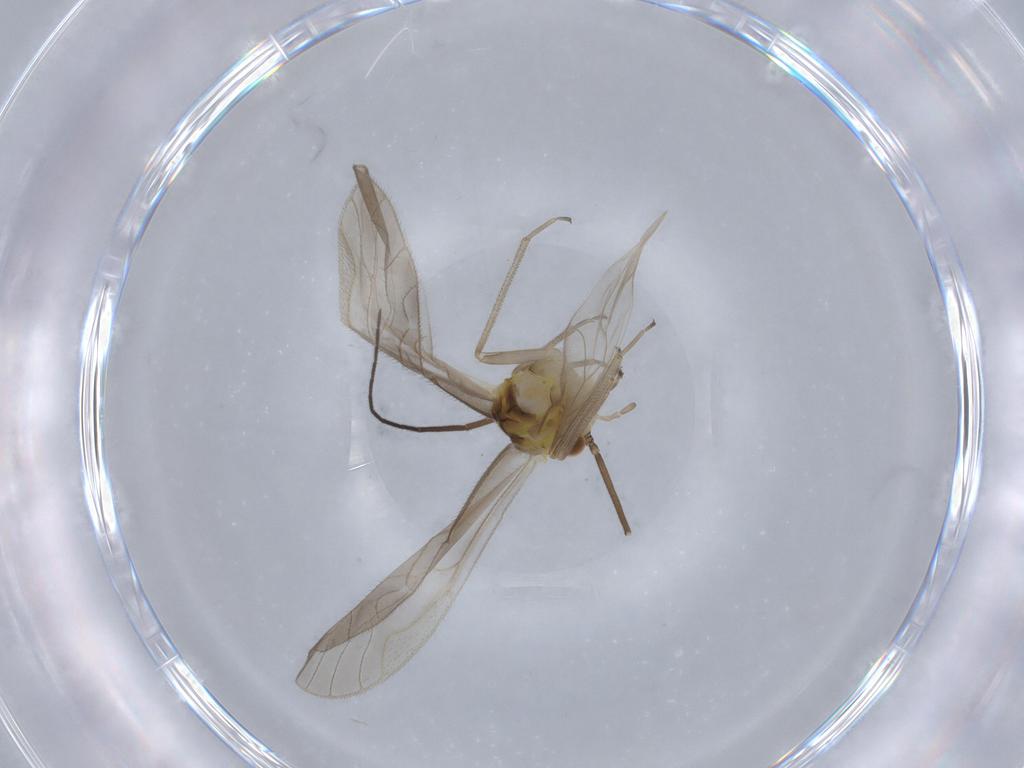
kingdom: Animalia
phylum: Arthropoda
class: Insecta
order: Psocodea
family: Caeciliusidae
